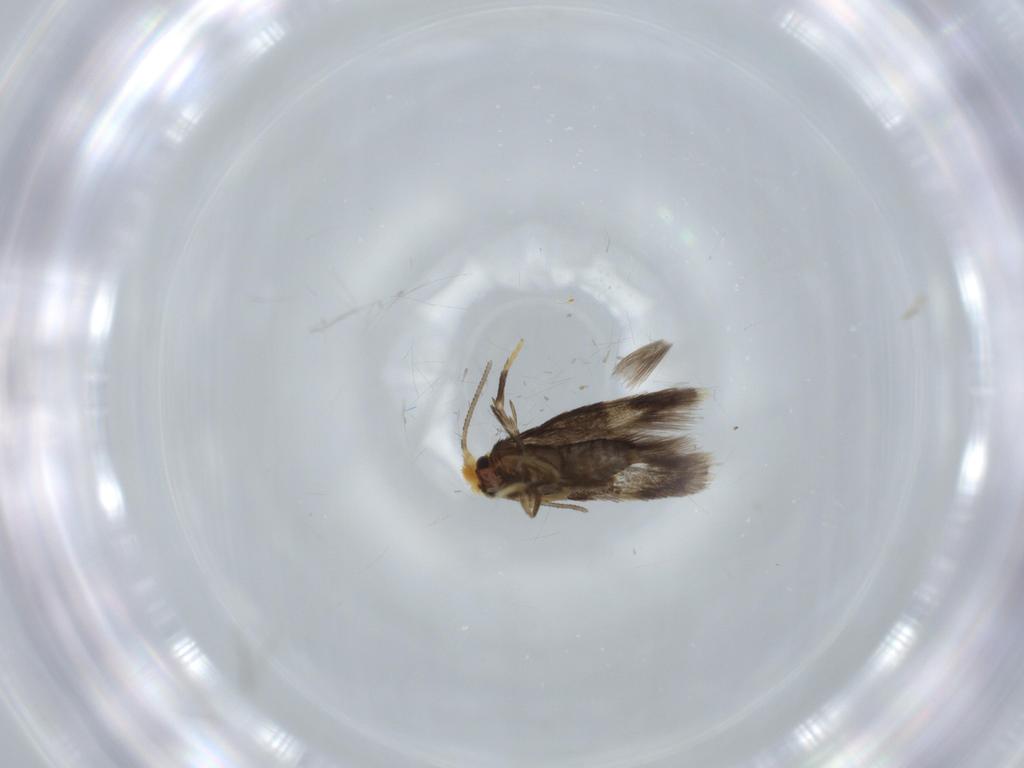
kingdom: Animalia
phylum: Arthropoda
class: Insecta
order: Lepidoptera
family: Nepticulidae
